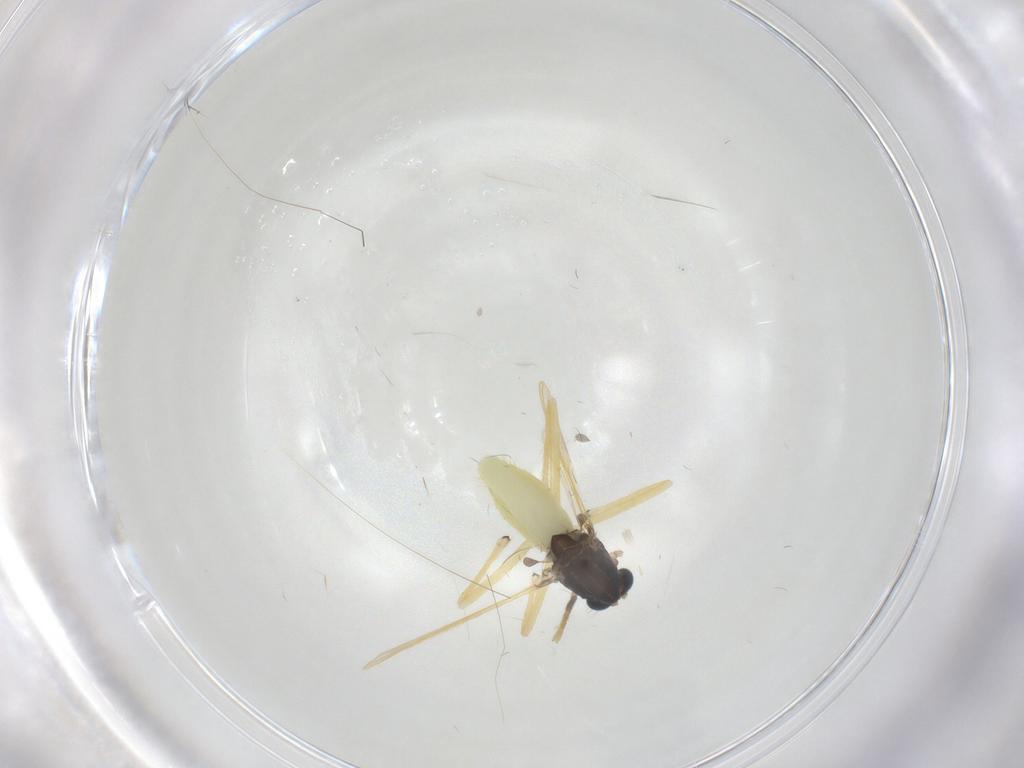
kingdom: Animalia
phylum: Arthropoda
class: Insecta
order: Diptera
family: Chironomidae
